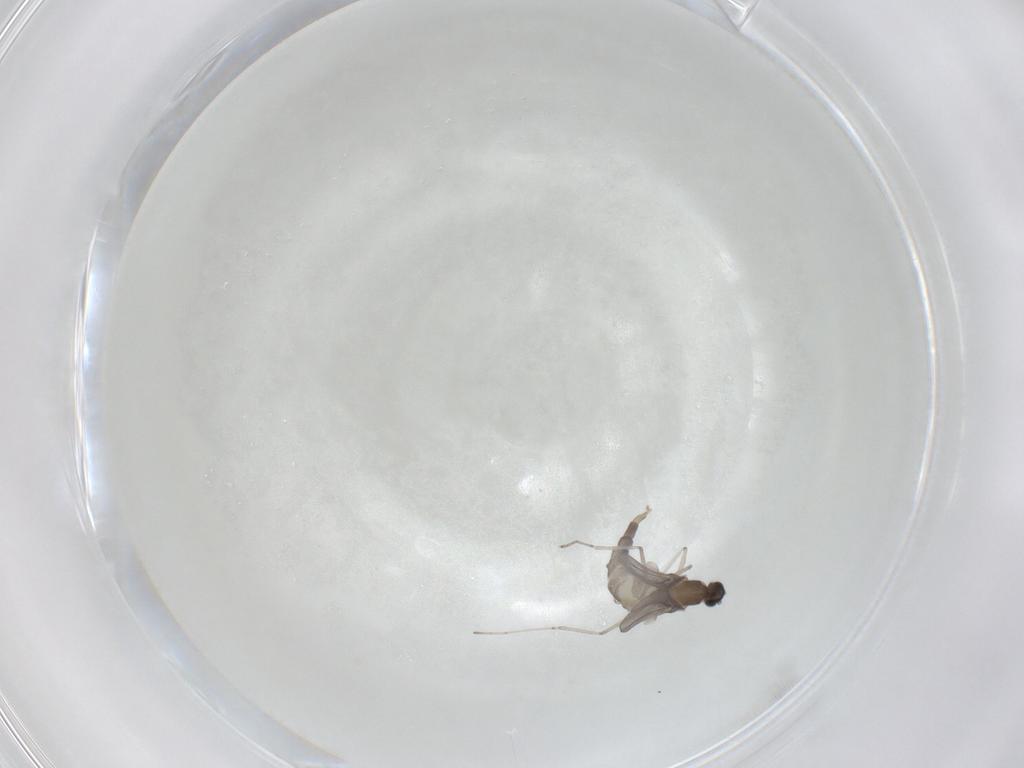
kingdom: Animalia
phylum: Arthropoda
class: Insecta
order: Diptera
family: Cecidomyiidae
